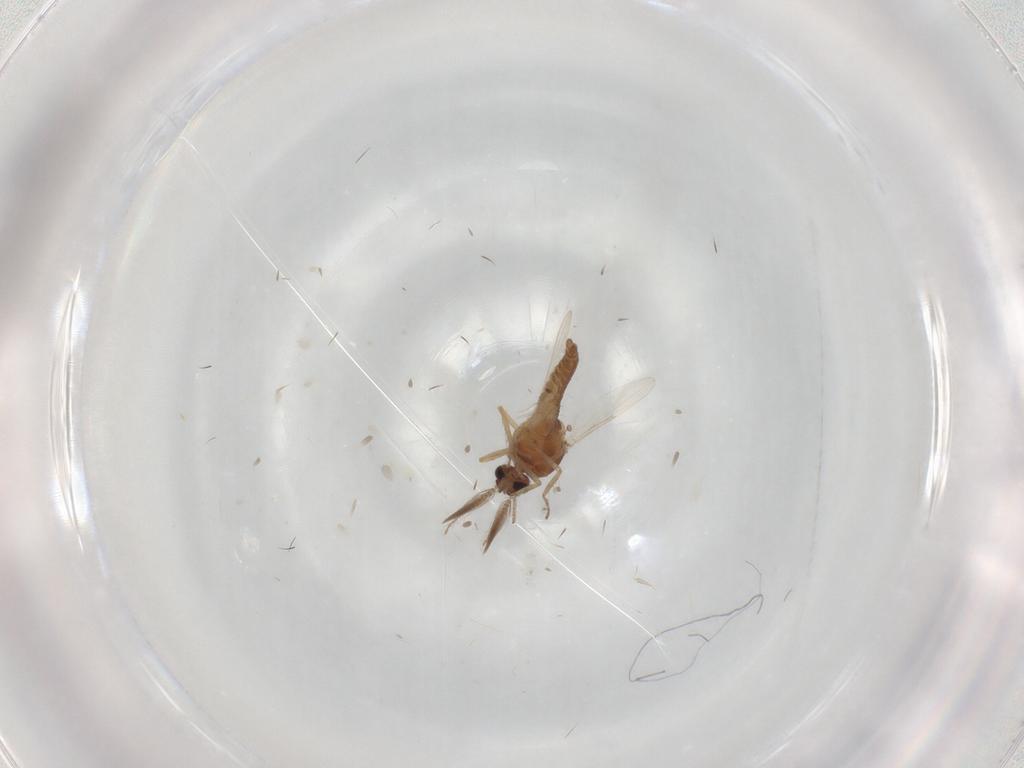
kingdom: Animalia
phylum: Arthropoda
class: Insecta
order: Diptera
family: Ceratopogonidae
